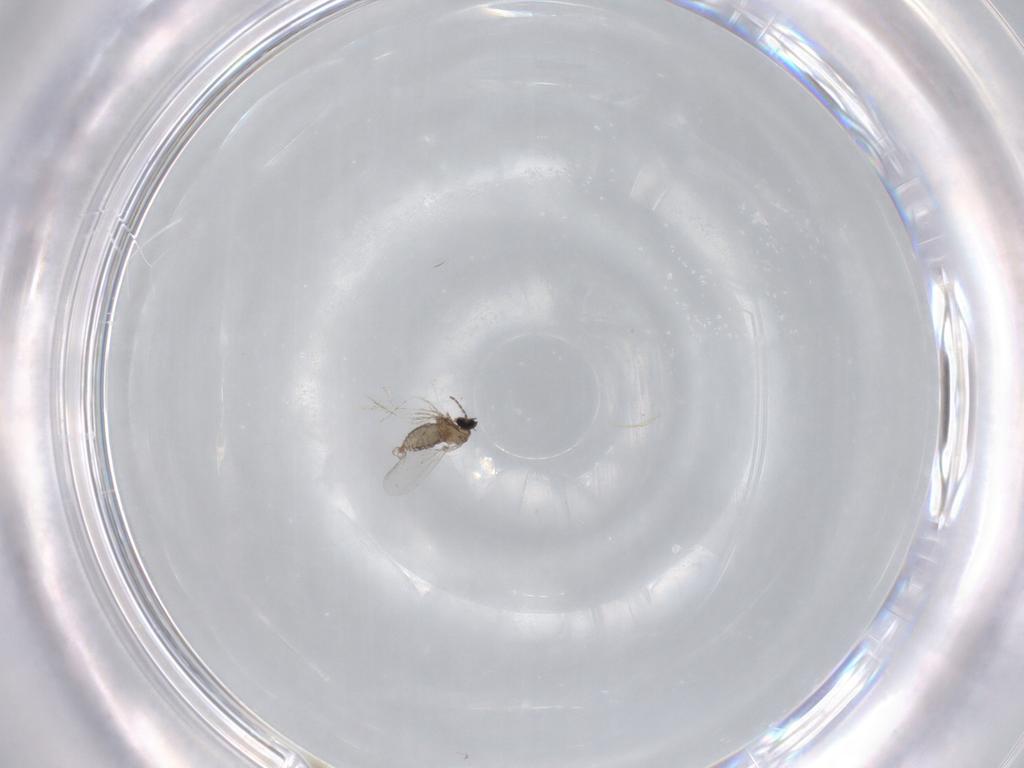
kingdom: Animalia
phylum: Arthropoda
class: Insecta
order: Diptera
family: Cecidomyiidae
